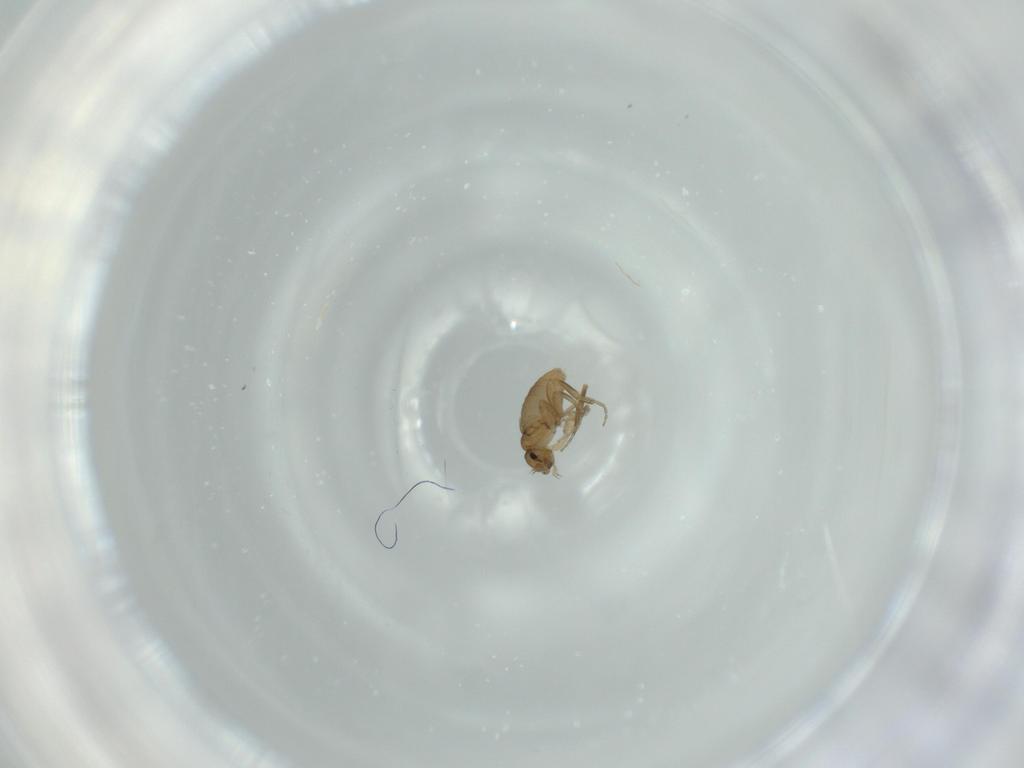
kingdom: Animalia
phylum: Arthropoda
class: Insecta
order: Diptera
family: Phoridae
